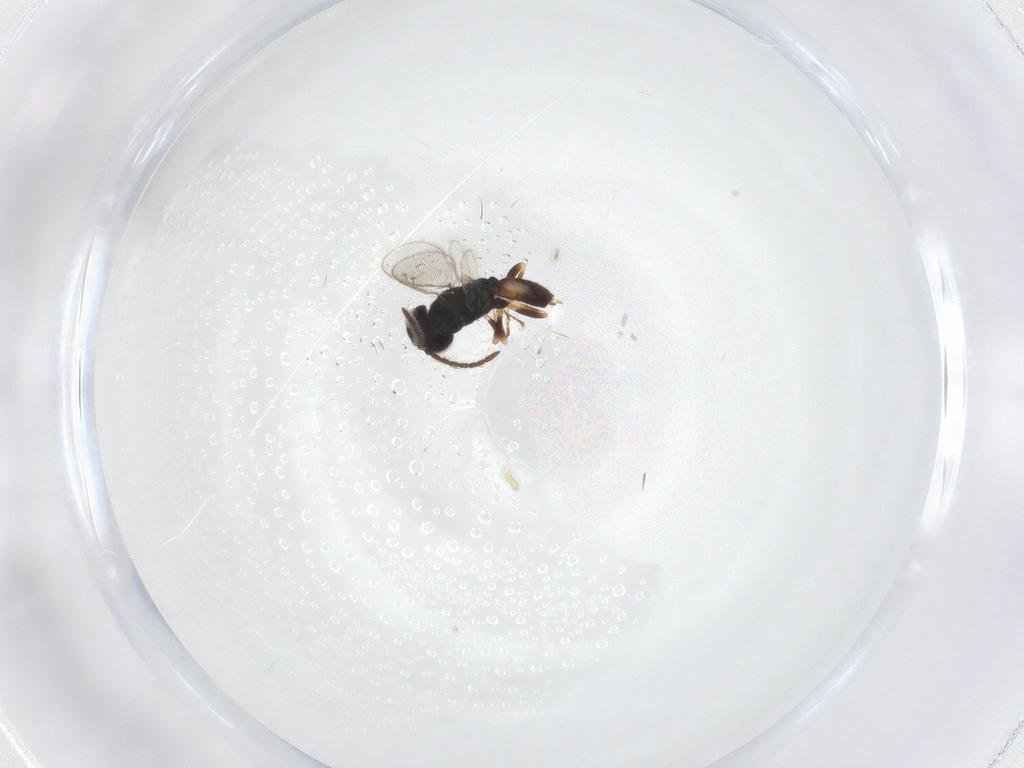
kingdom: Animalia
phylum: Arthropoda
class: Insecta
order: Hymenoptera
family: Pteromalidae
